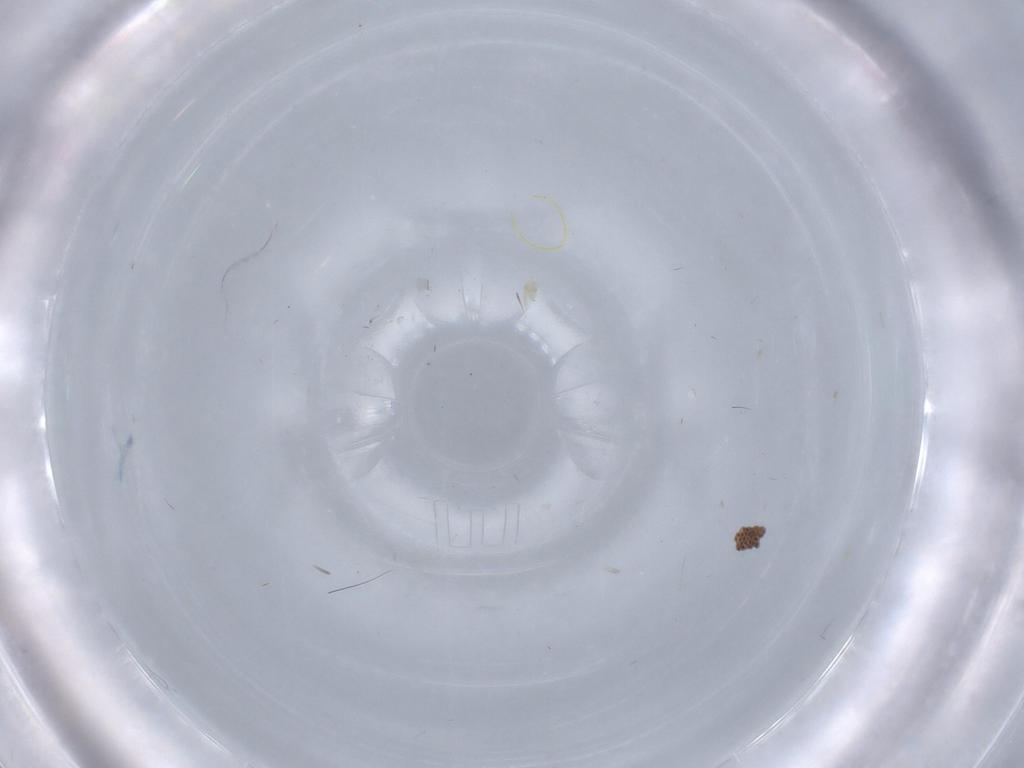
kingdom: Animalia
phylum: Arthropoda
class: Arachnida
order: Trombidiformes
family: Cunaxidae
